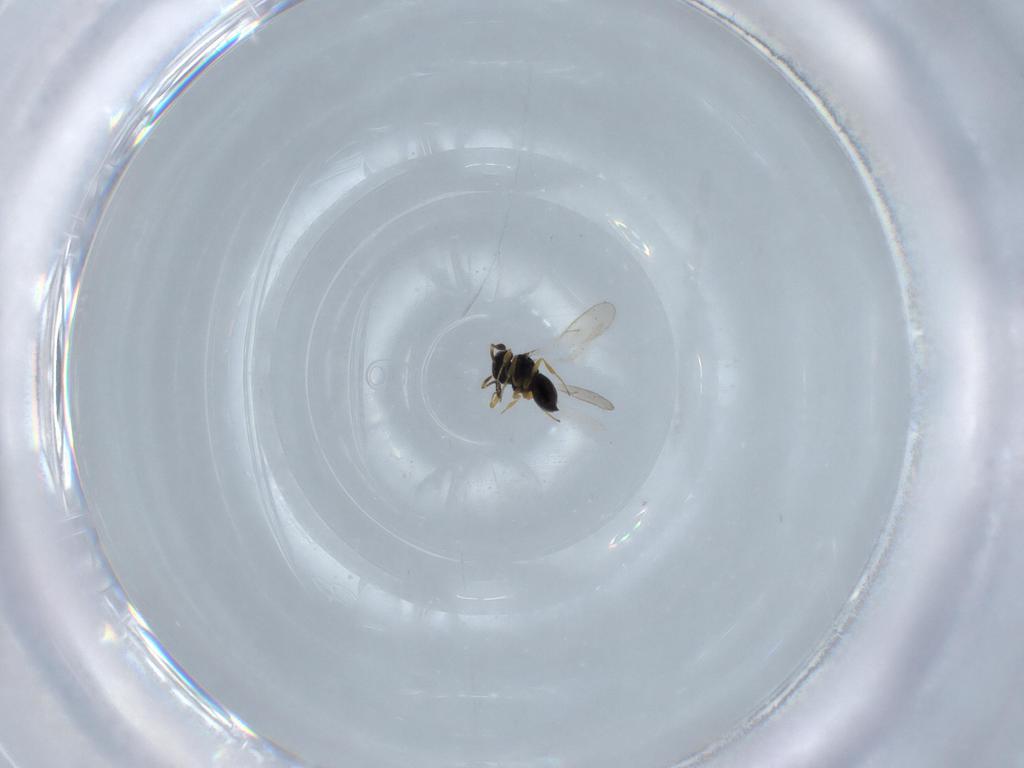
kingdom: Animalia
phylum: Arthropoda
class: Insecta
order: Hymenoptera
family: Scelionidae
